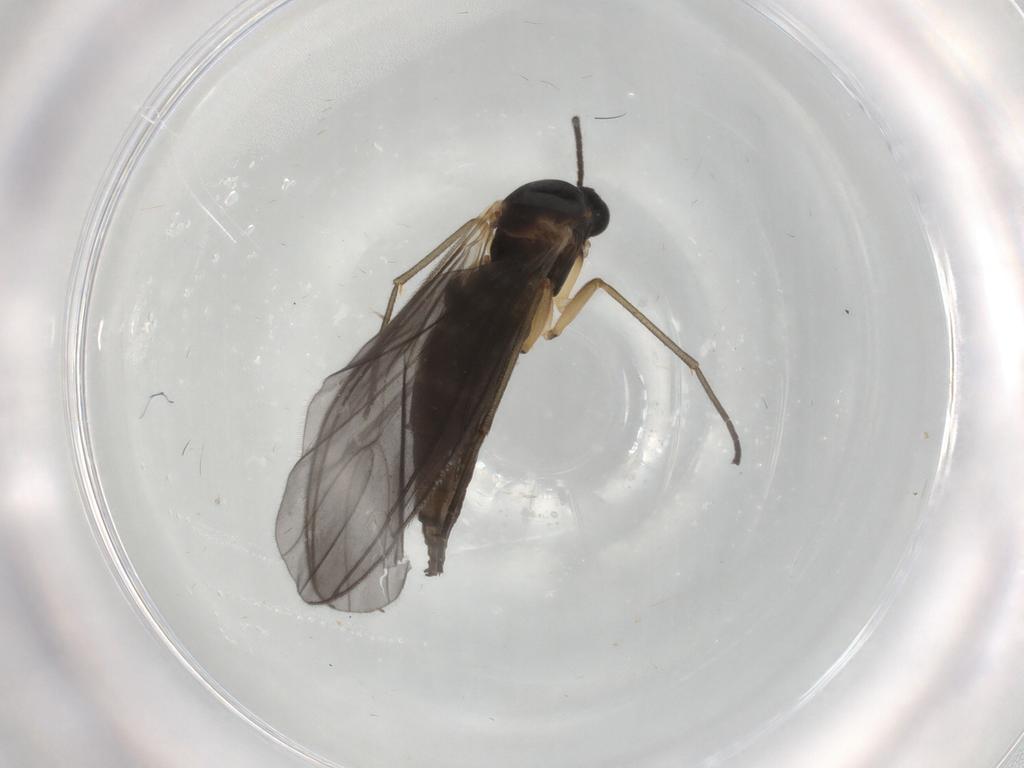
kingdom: Animalia
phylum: Arthropoda
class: Insecta
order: Diptera
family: Sciaridae
